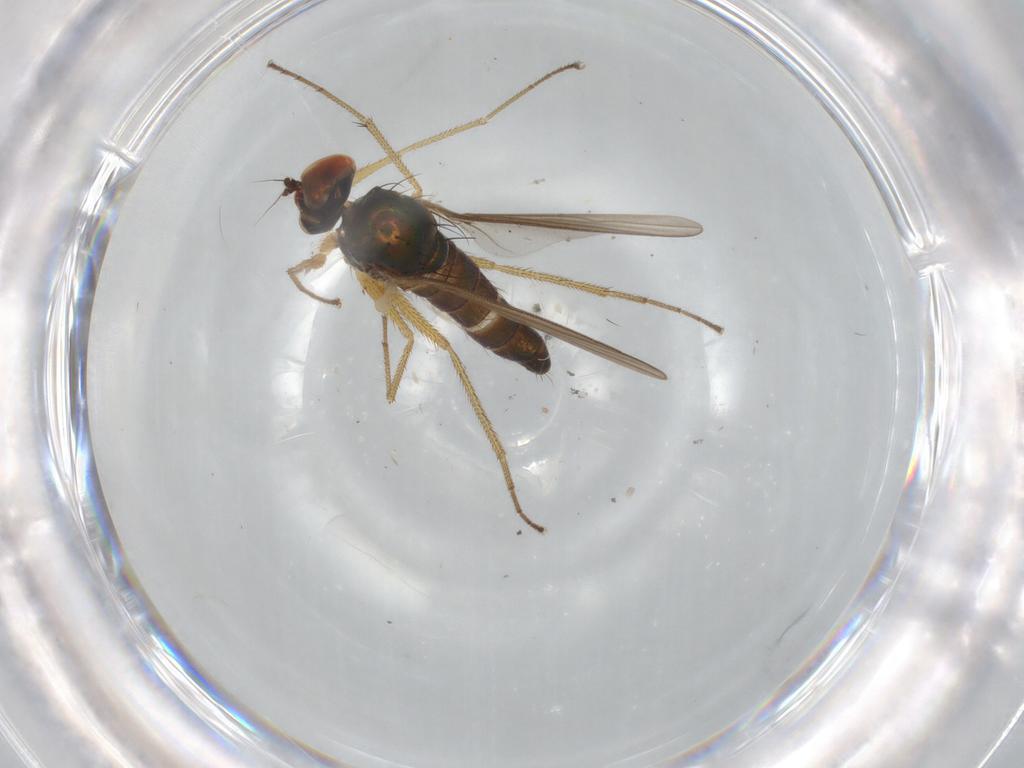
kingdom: Animalia
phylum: Arthropoda
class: Insecta
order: Diptera
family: Dolichopodidae
